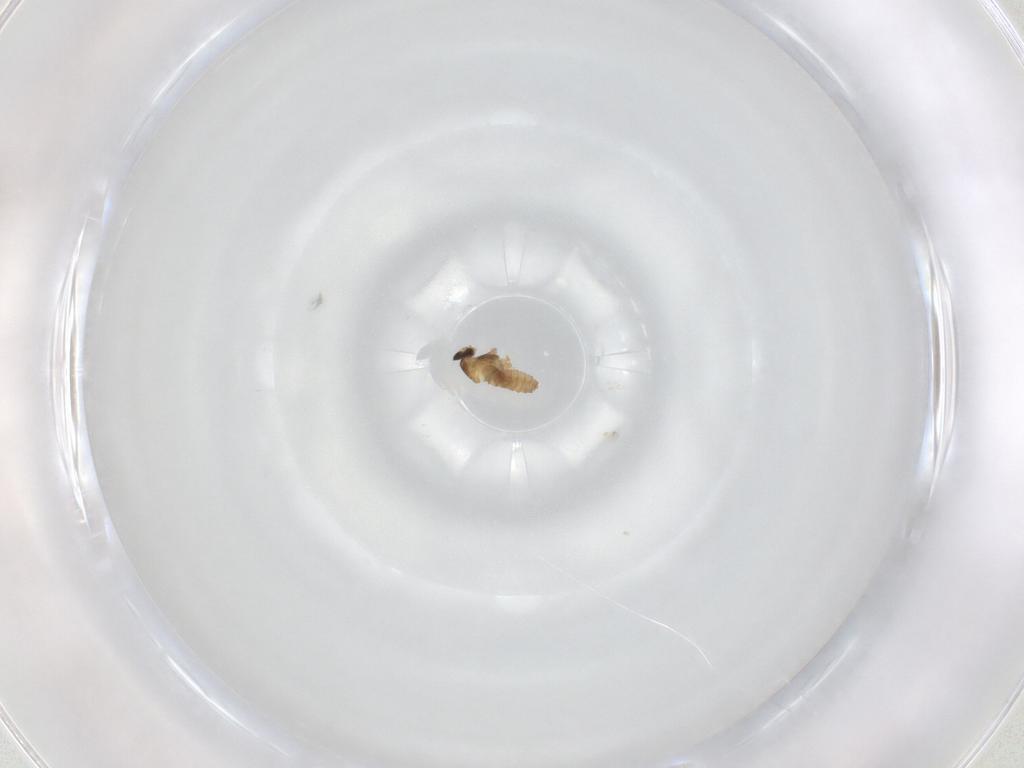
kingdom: Animalia
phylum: Arthropoda
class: Insecta
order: Diptera
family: Cecidomyiidae
